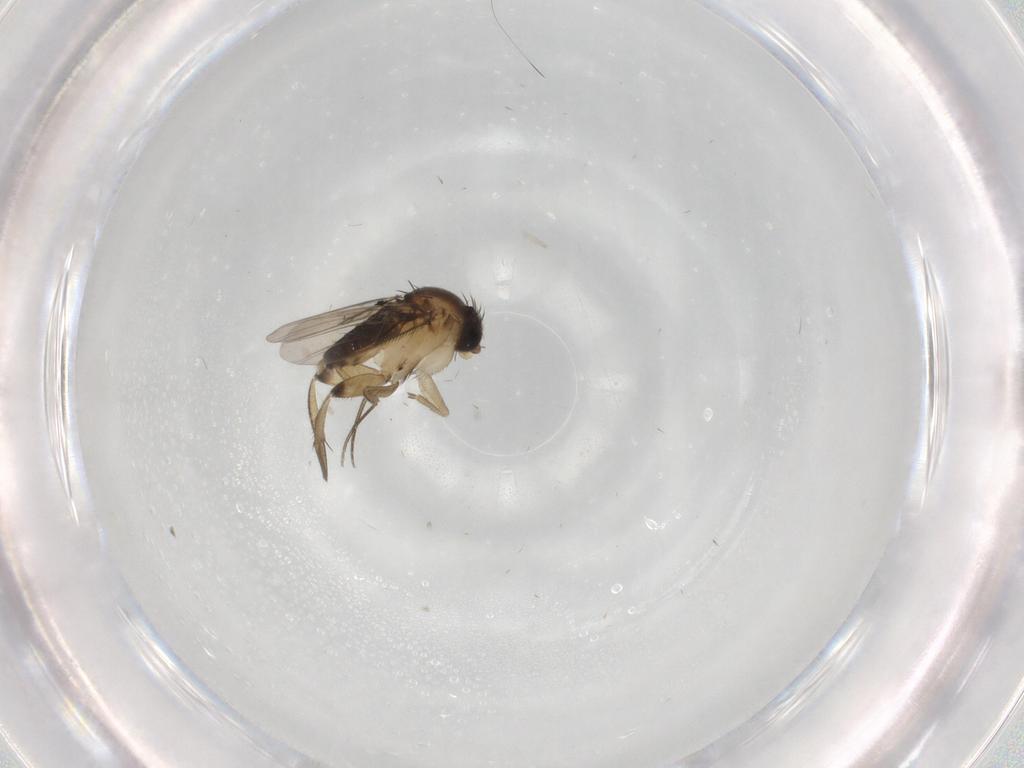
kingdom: Animalia
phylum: Arthropoda
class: Insecta
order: Diptera
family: Phoridae
